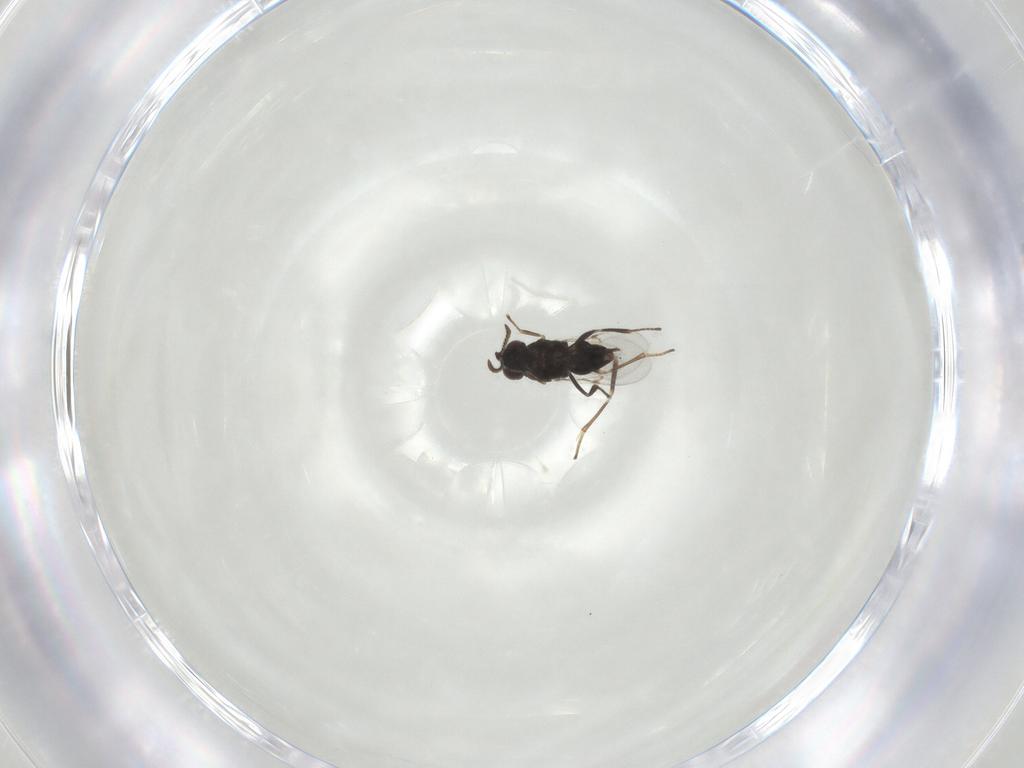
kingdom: Animalia
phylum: Arthropoda
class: Insecta
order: Hymenoptera
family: Encyrtidae
